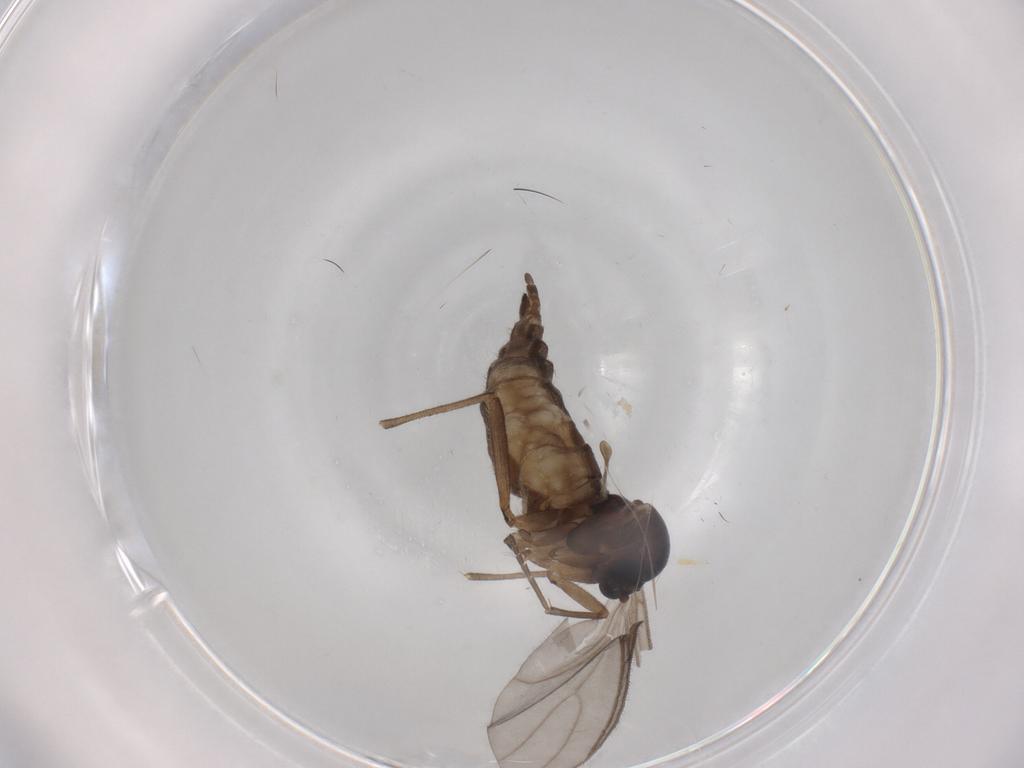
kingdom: Animalia
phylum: Arthropoda
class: Insecta
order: Diptera
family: Sciaridae
